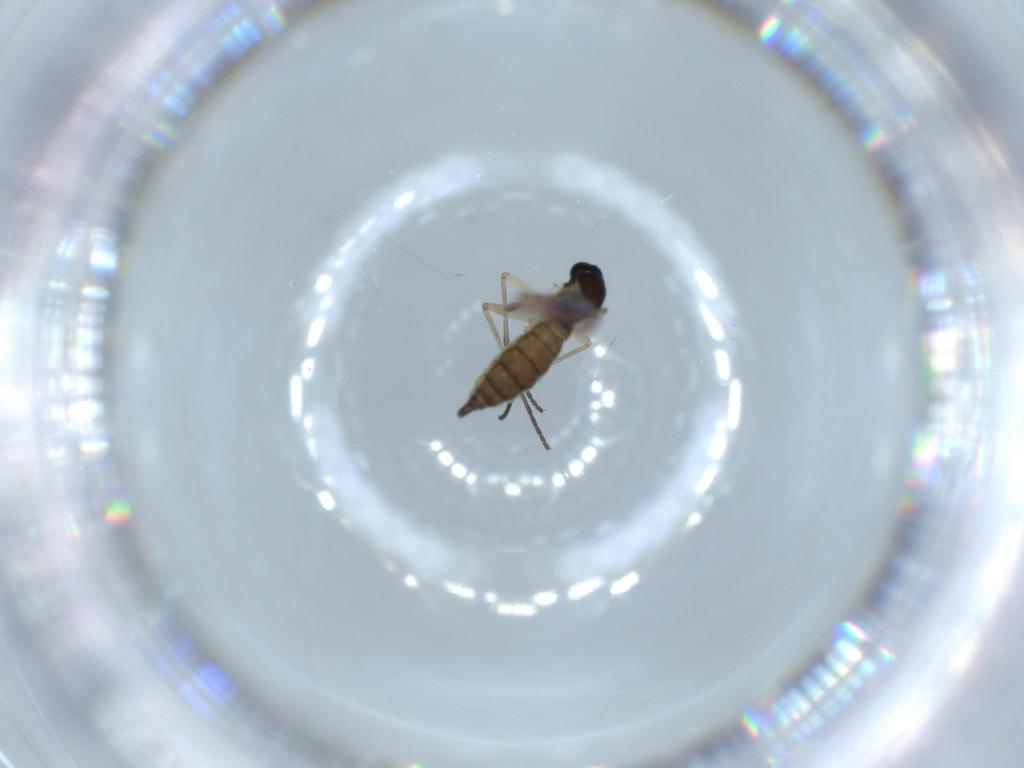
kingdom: Animalia
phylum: Arthropoda
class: Insecta
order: Diptera
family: Sciaridae
